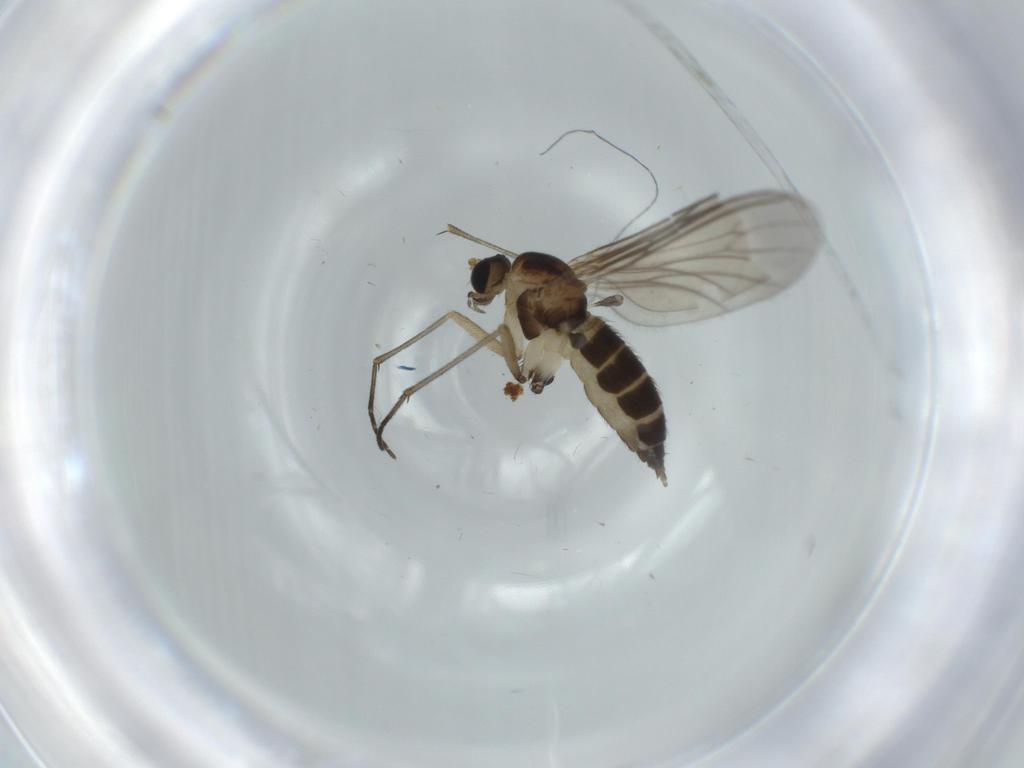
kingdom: Animalia
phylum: Arthropoda
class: Insecta
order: Diptera
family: Sciaridae
